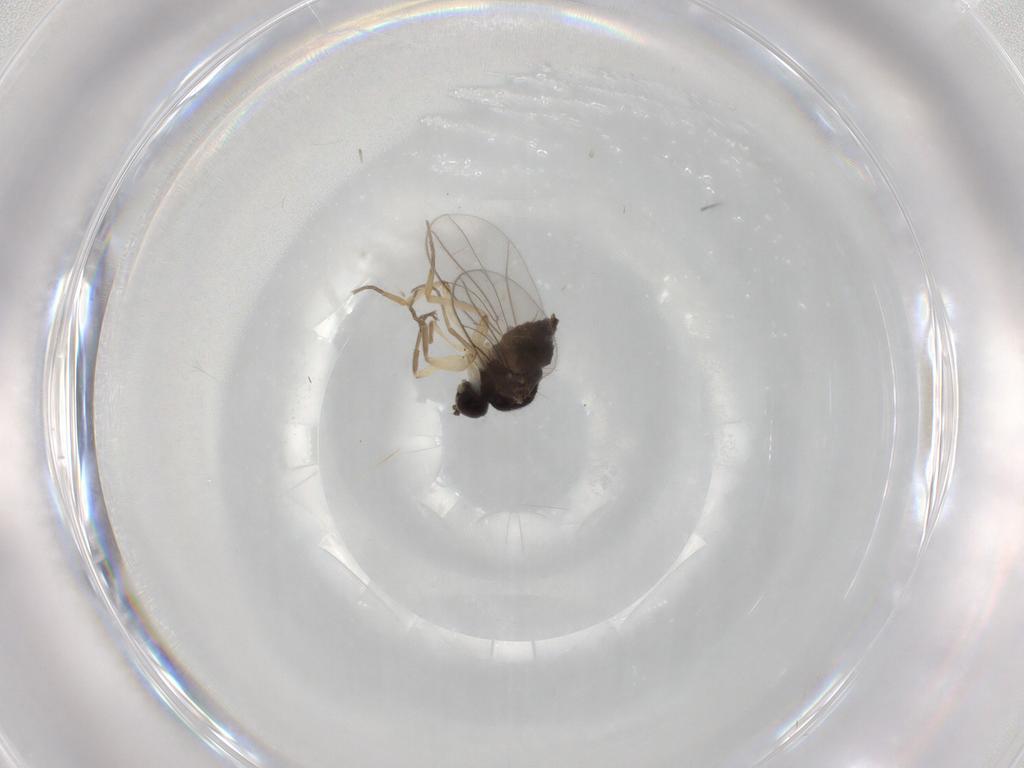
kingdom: Animalia
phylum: Arthropoda
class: Insecta
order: Diptera
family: Hybotidae
